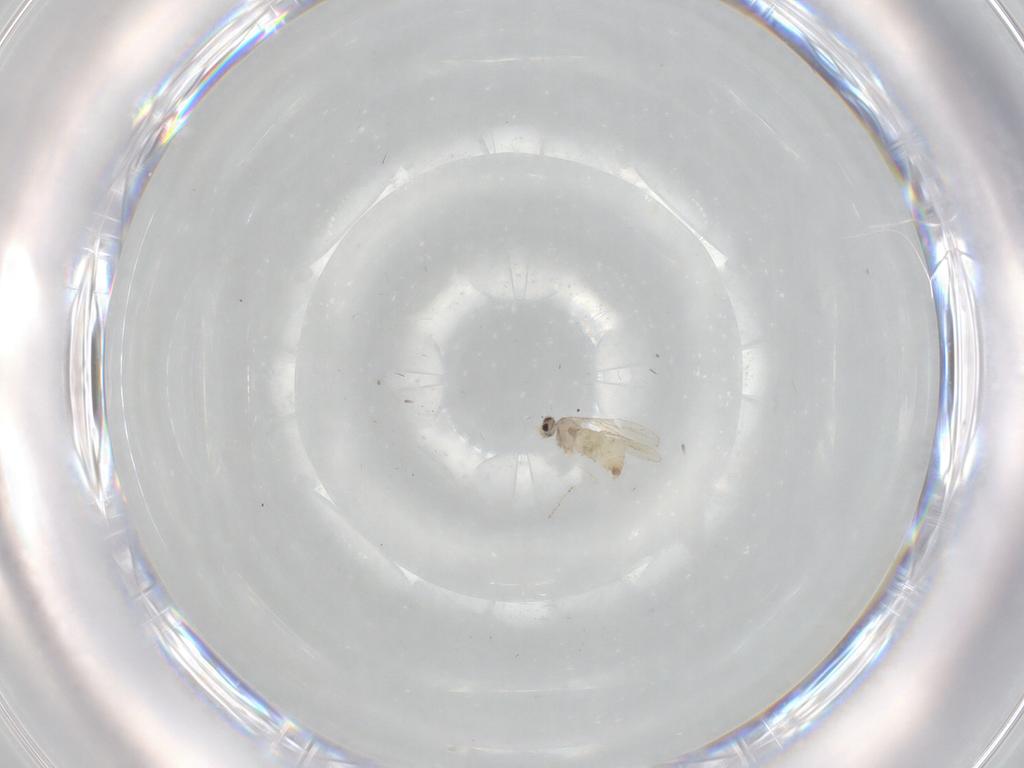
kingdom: Animalia
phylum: Arthropoda
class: Insecta
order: Diptera
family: Cecidomyiidae
